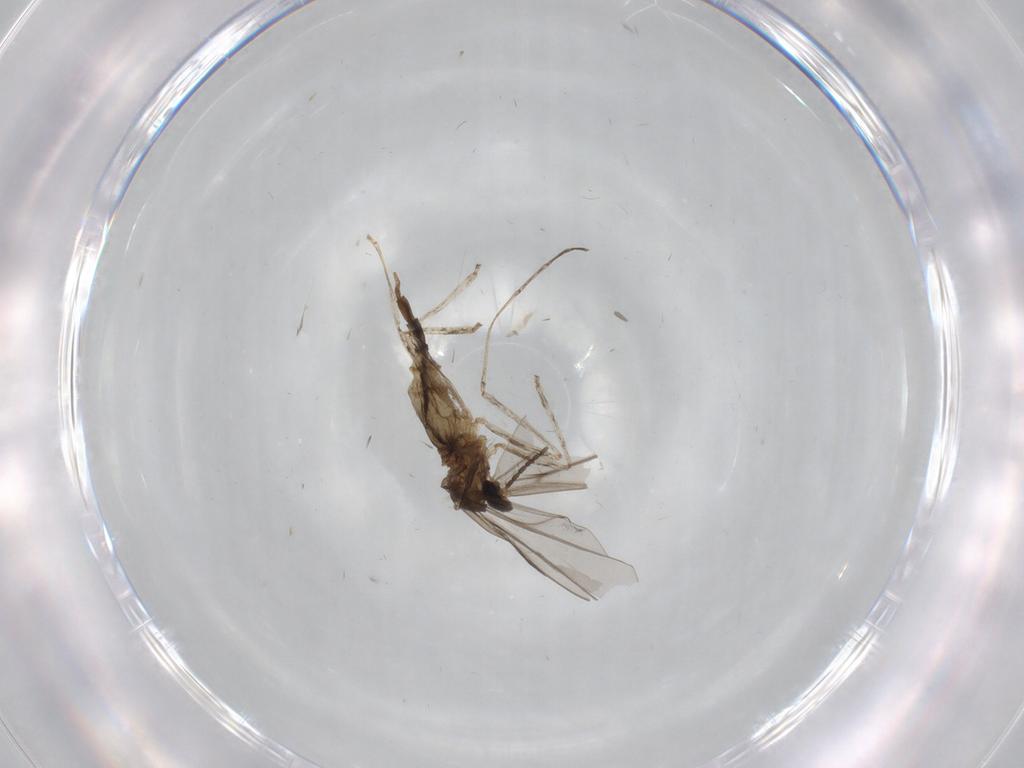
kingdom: Animalia
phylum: Arthropoda
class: Insecta
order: Diptera
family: Cecidomyiidae
